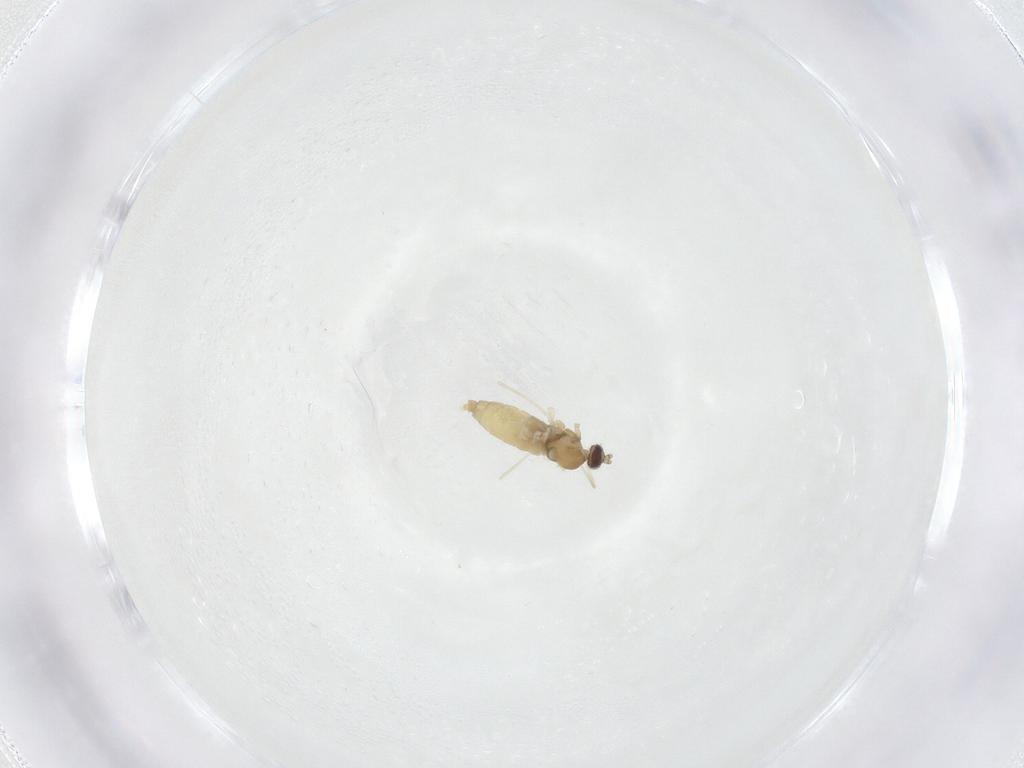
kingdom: Animalia
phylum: Arthropoda
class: Insecta
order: Diptera
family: Cecidomyiidae
